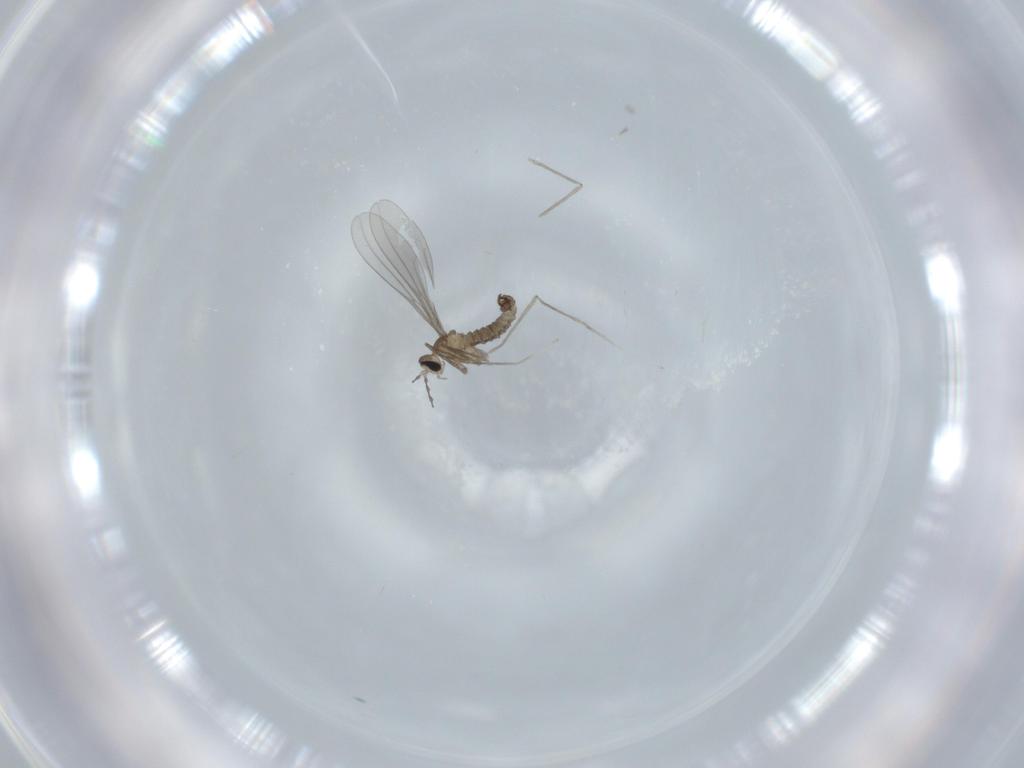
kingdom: Animalia
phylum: Arthropoda
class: Insecta
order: Diptera
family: Cecidomyiidae
